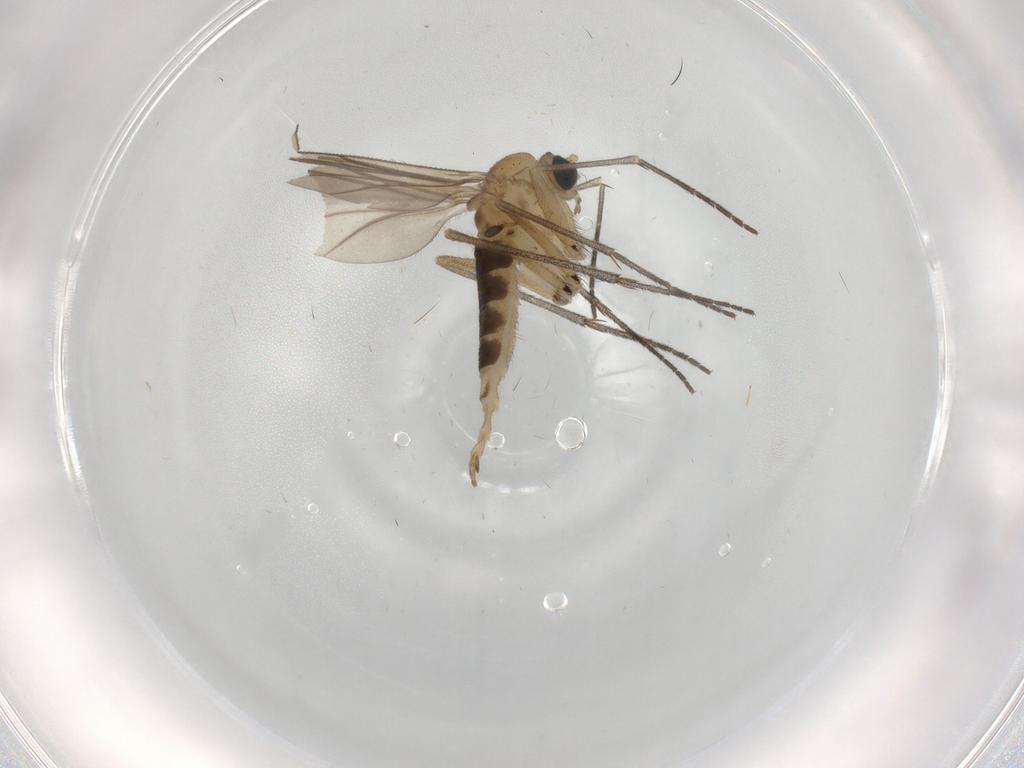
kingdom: Animalia
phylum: Arthropoda
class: Insecta
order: Diptera
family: Sciaridae
